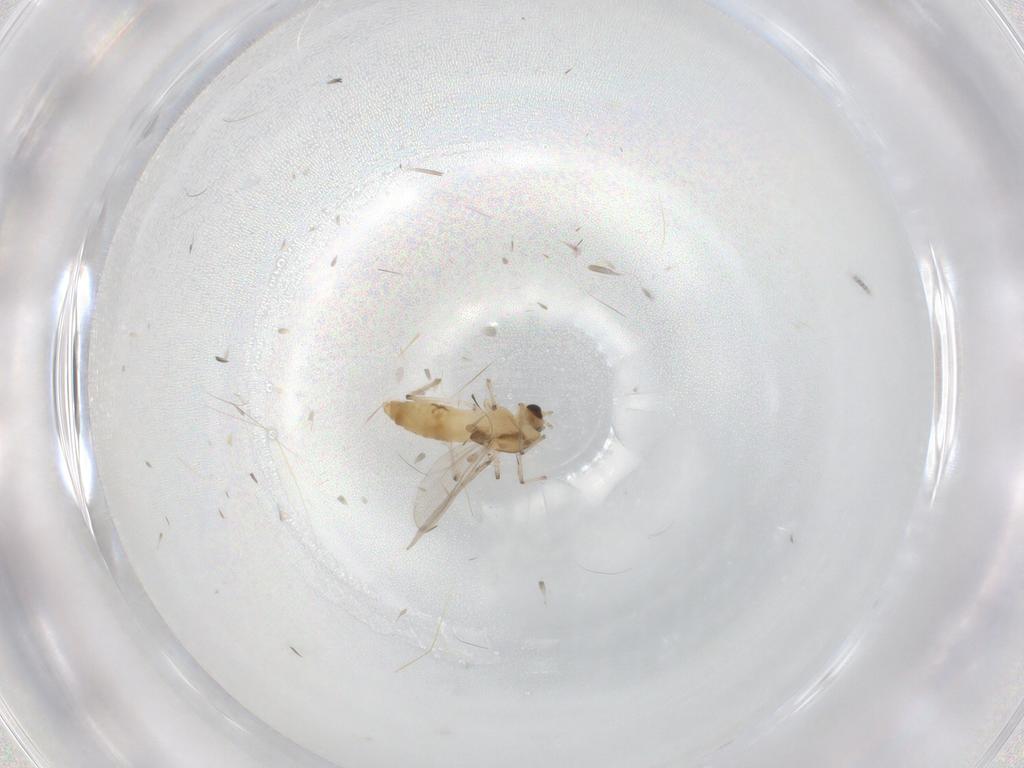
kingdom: Animalia
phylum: Arthropoda
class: Insecta
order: Diptera
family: Chironomidae
